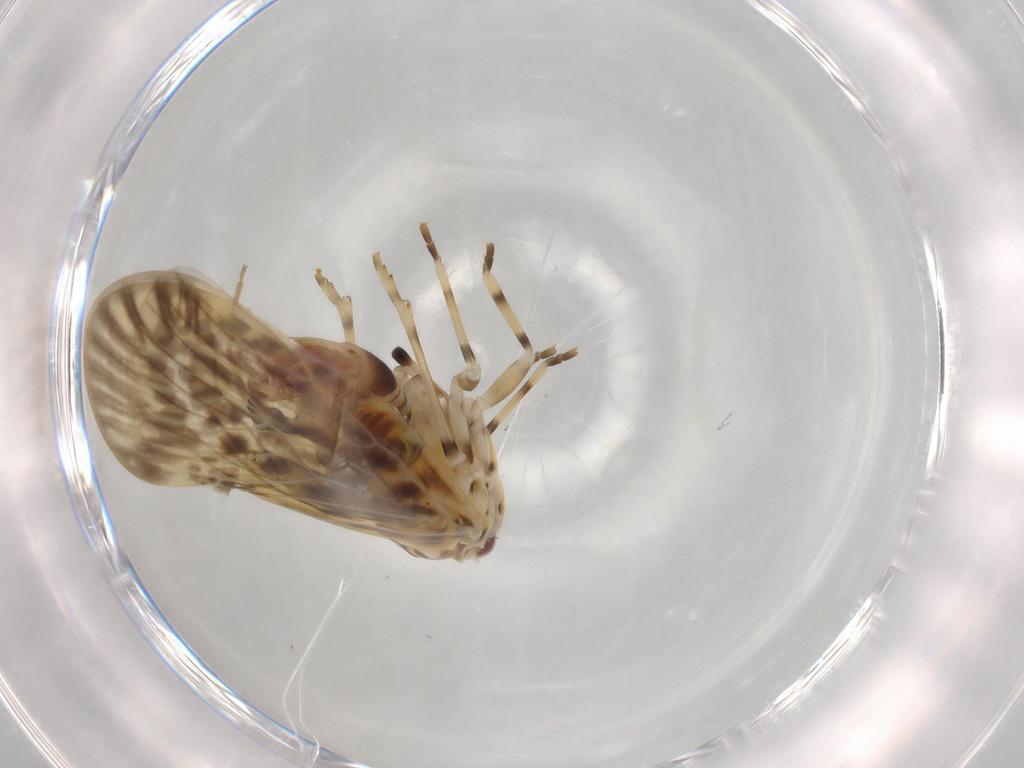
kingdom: Animalia
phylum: Arthropoda
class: Insecta
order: Hemiptera
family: Derbidae
